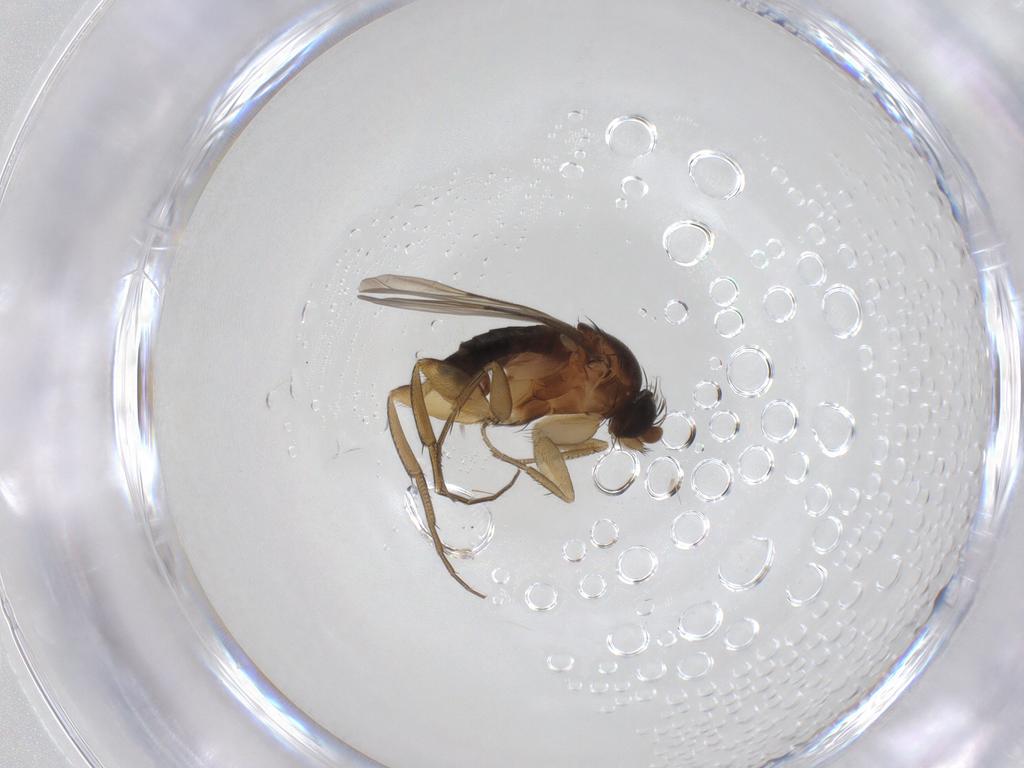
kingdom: Animalia
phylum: Arthropoda
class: Insecta
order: Diptera
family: Phoridae
